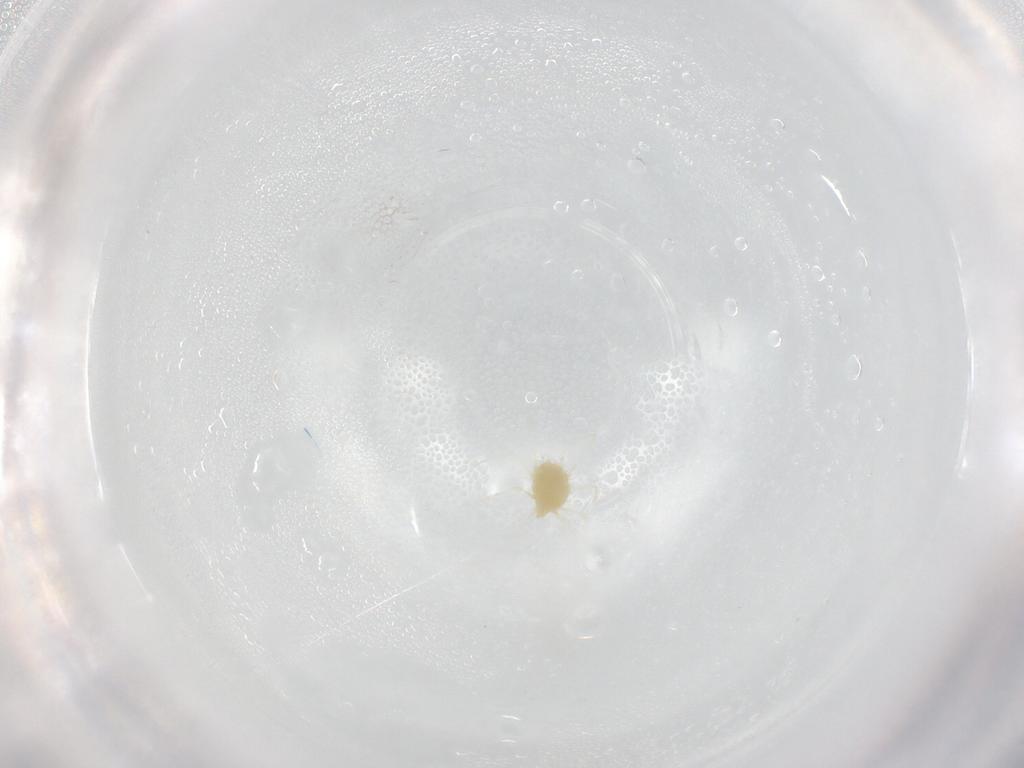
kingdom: Animalia
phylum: Arthropoda
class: Arachnida
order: Trombidiformes
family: Tetranychidae
